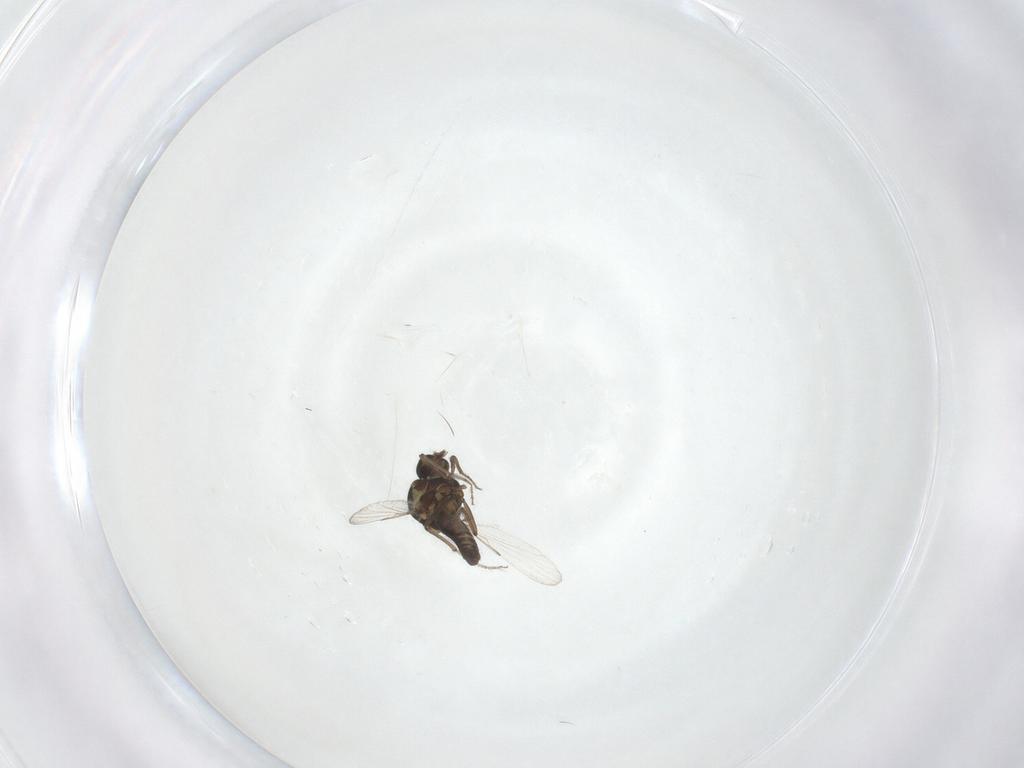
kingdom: Animalia
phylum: Arthropoda
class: Insecta
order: Diptera
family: Ceratopogonidae
